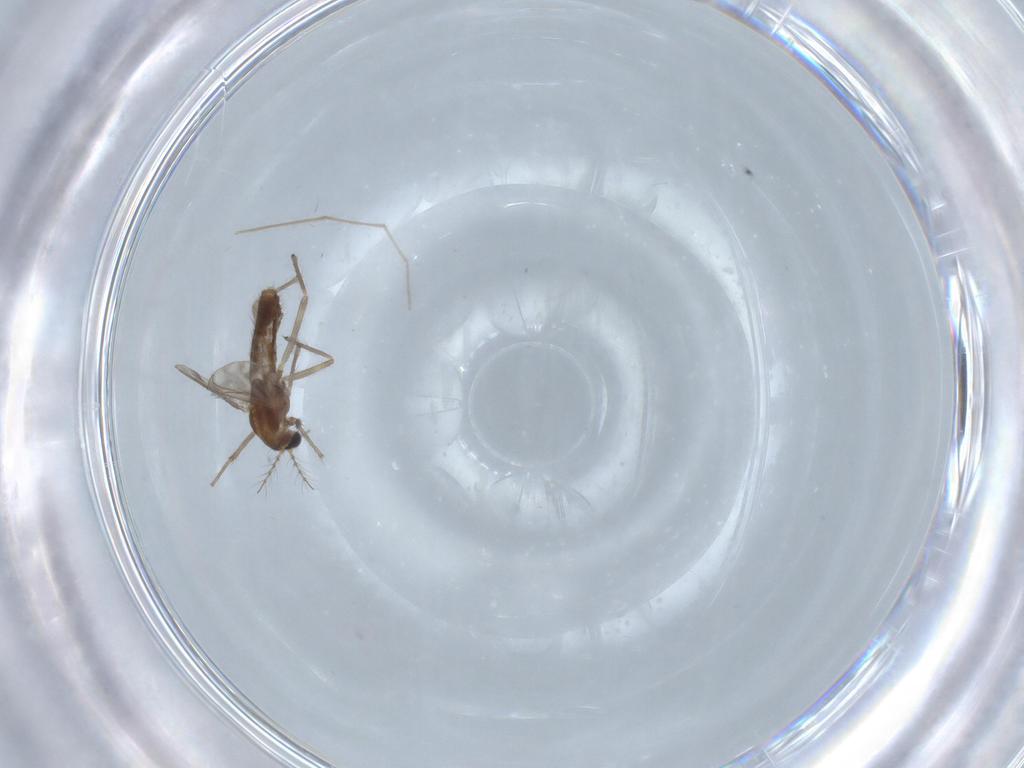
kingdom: Animalia
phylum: Arthropoda
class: Insecta
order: Diptera
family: Chironomidae
